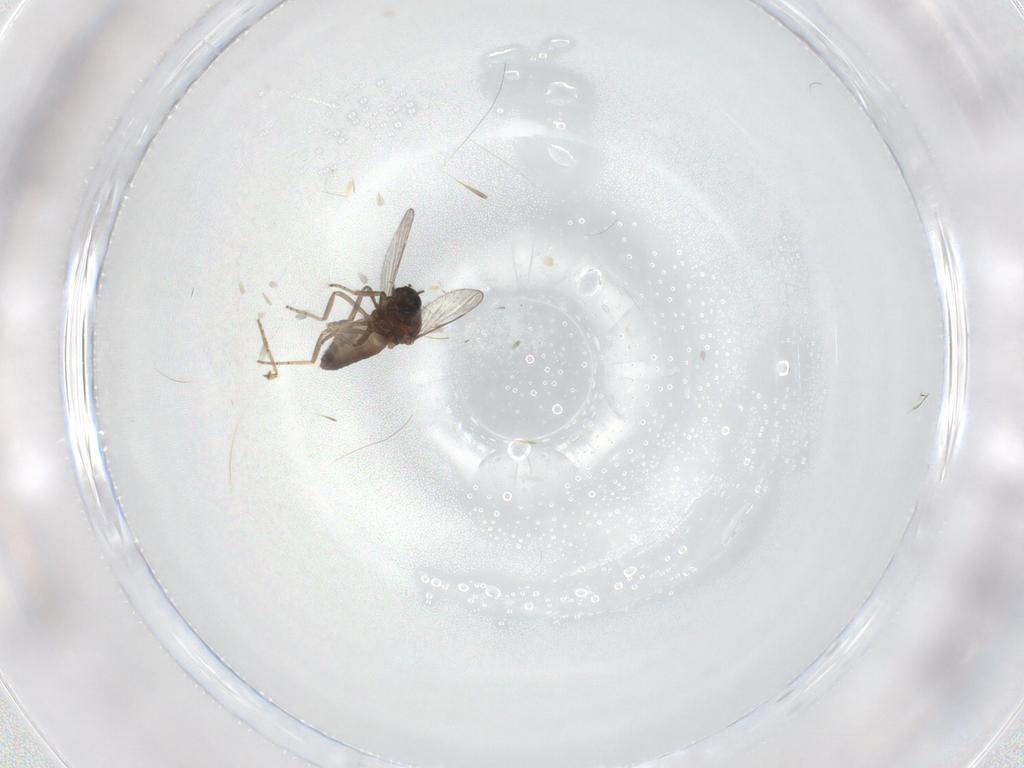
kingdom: Animalia
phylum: Arthropoda
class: Insecta
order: Diptera
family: Ceratopogonidae
